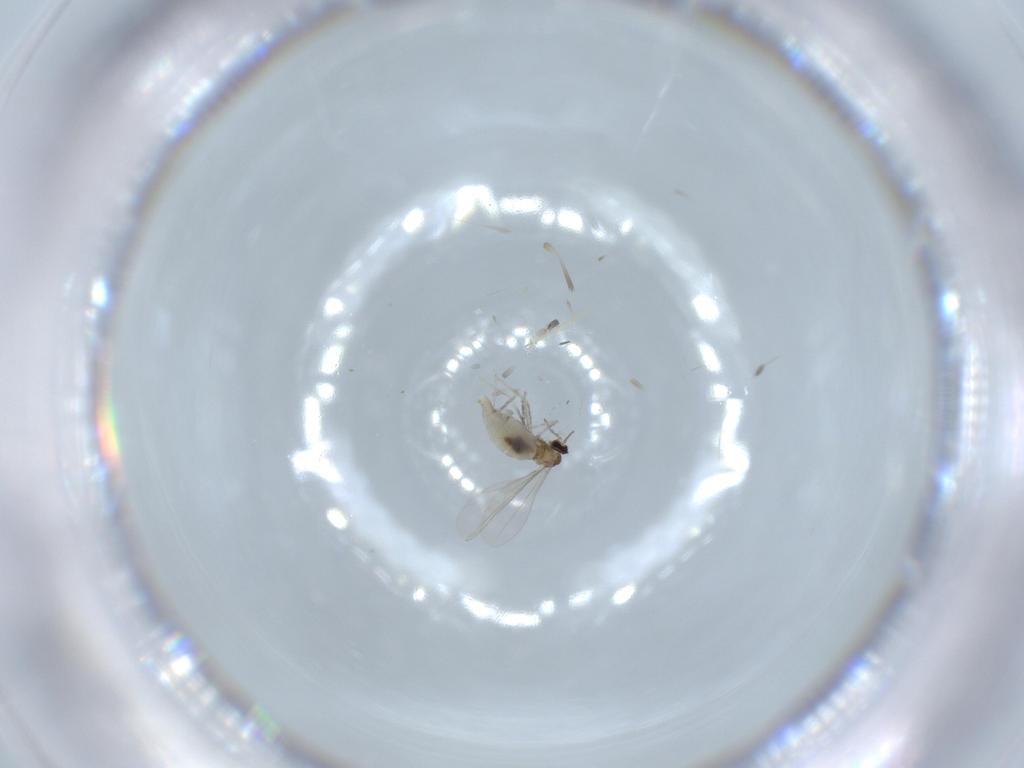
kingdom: Animalia
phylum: Arthropoda
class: Insecta
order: Diptera
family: Cecidomyiidae
